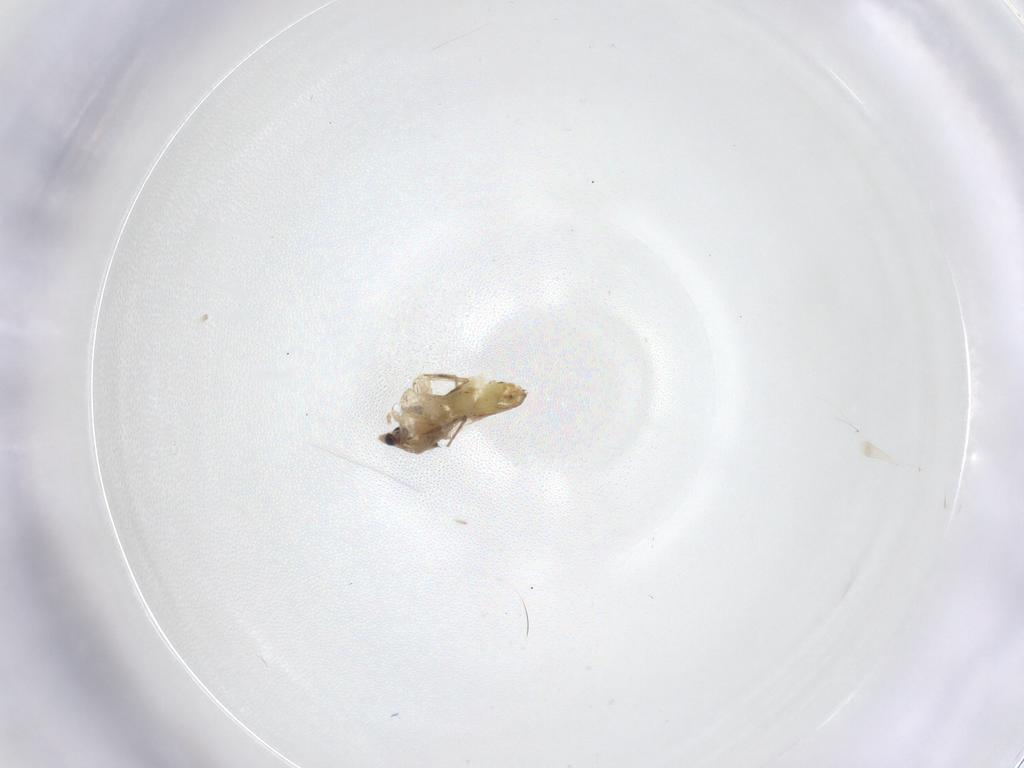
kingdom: Animalia
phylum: Arthropoda
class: Insecta
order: Diptera
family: Chironomidae
